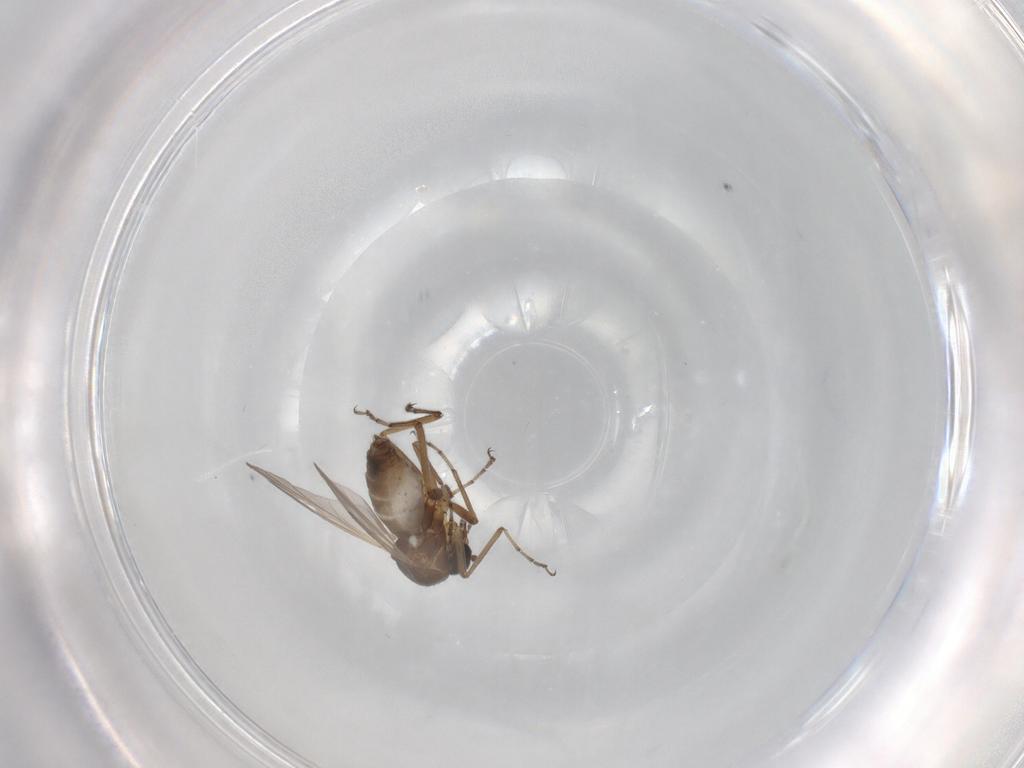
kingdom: Animalia
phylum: Arthropoda
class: Insecta
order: Diptera
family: Ceratopogonidae
